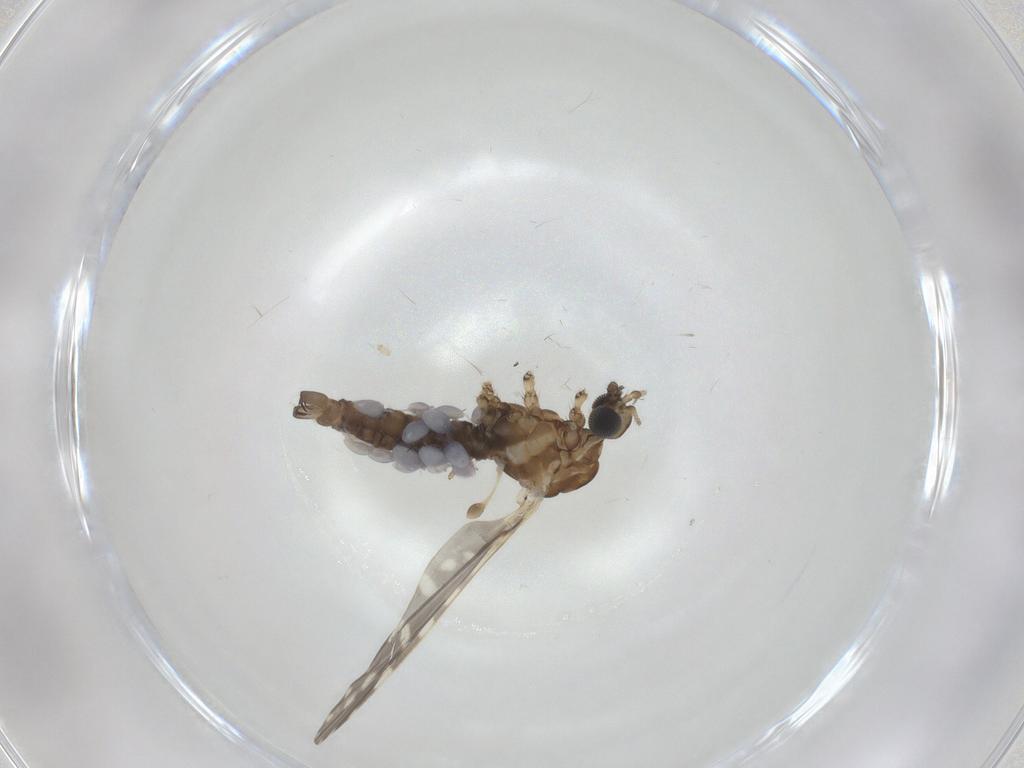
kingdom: Animalia
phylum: Arthropoda
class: Insecta
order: Diptera
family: Limoniidae
